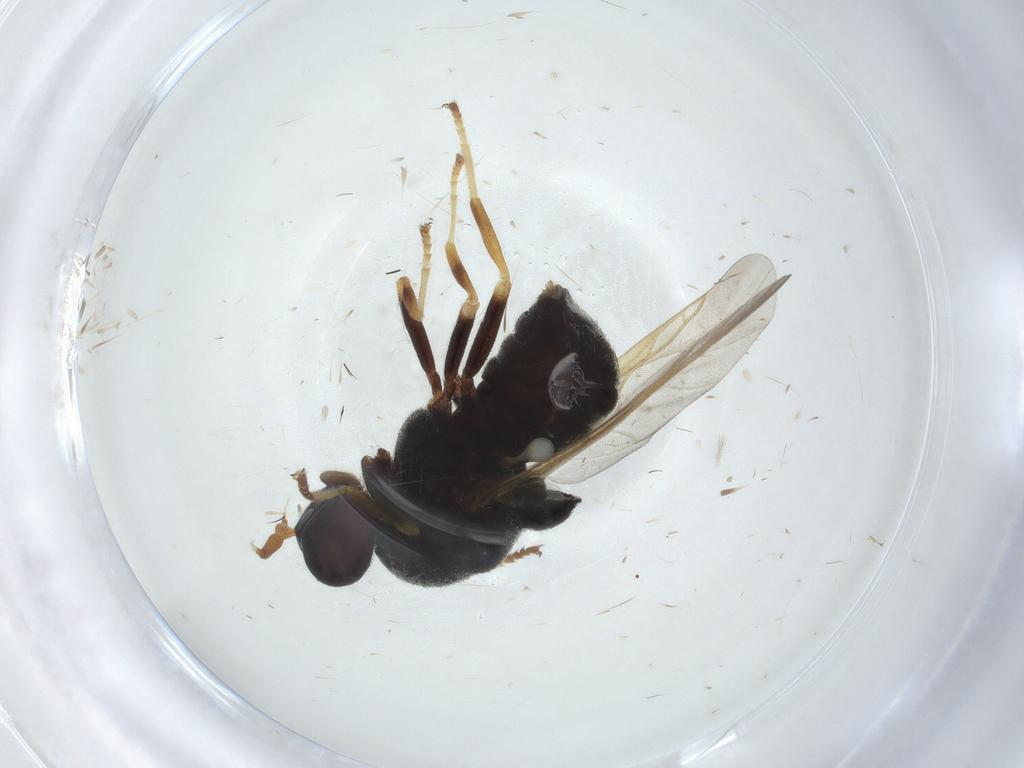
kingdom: Animalia
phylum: Arthropoda
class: Insecta
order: Diptera
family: Stratiomyidae
